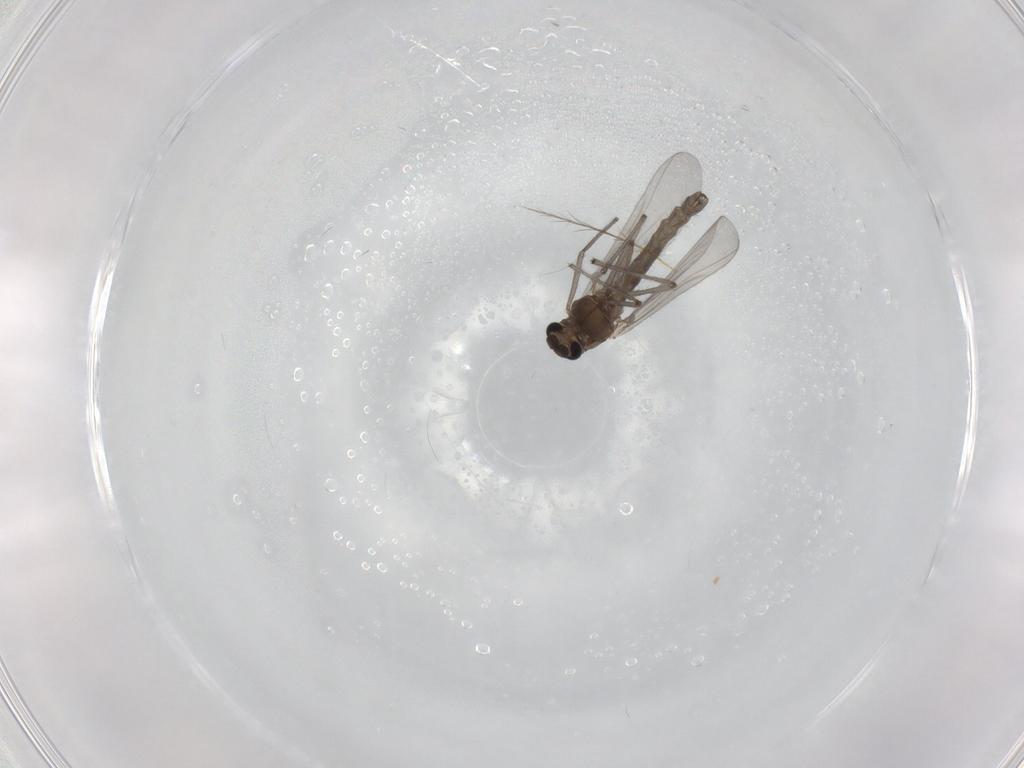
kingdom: Animalia
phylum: Arthropoda
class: Insecta
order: Diptera
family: Chironomidae
